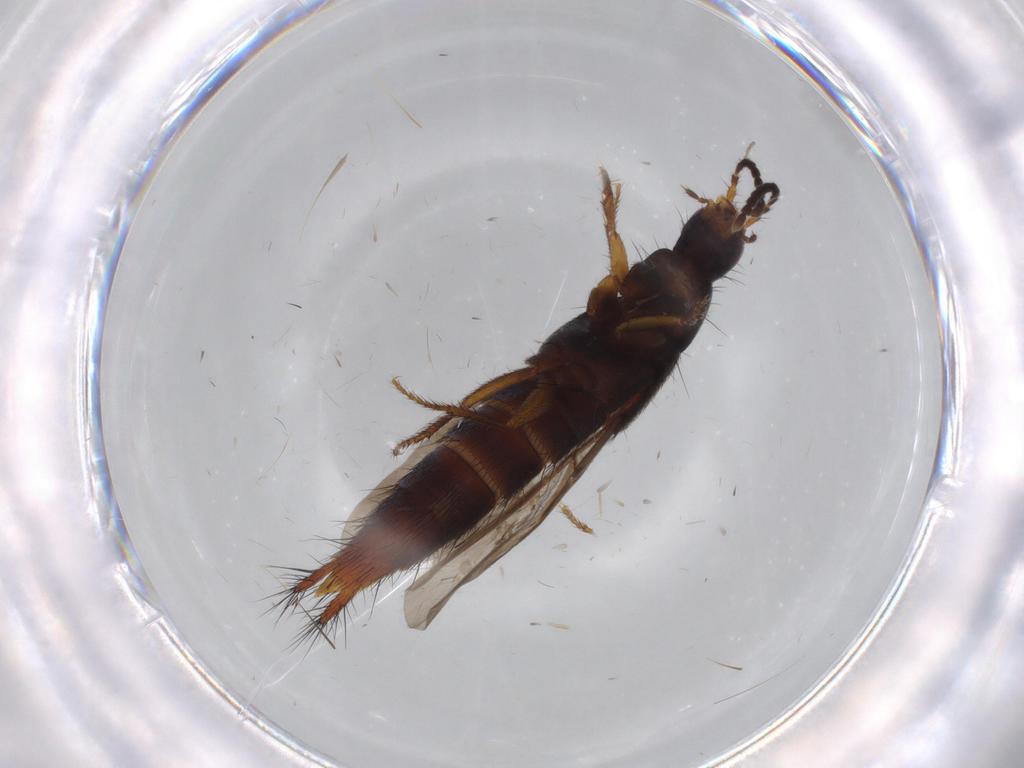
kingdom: Animalia
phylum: Arthropoda
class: Insecta
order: Coleoptera
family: Staphylinidae
